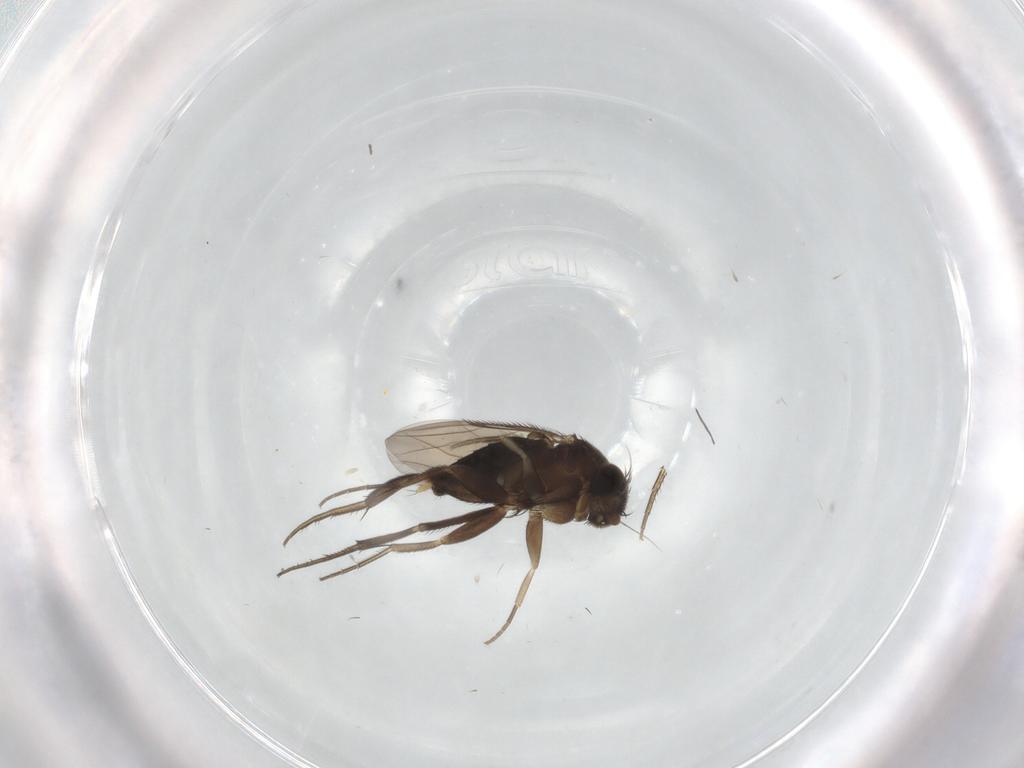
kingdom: Animalia
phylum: Arthropoda
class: Insecta
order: Diptera
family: Phoridae
